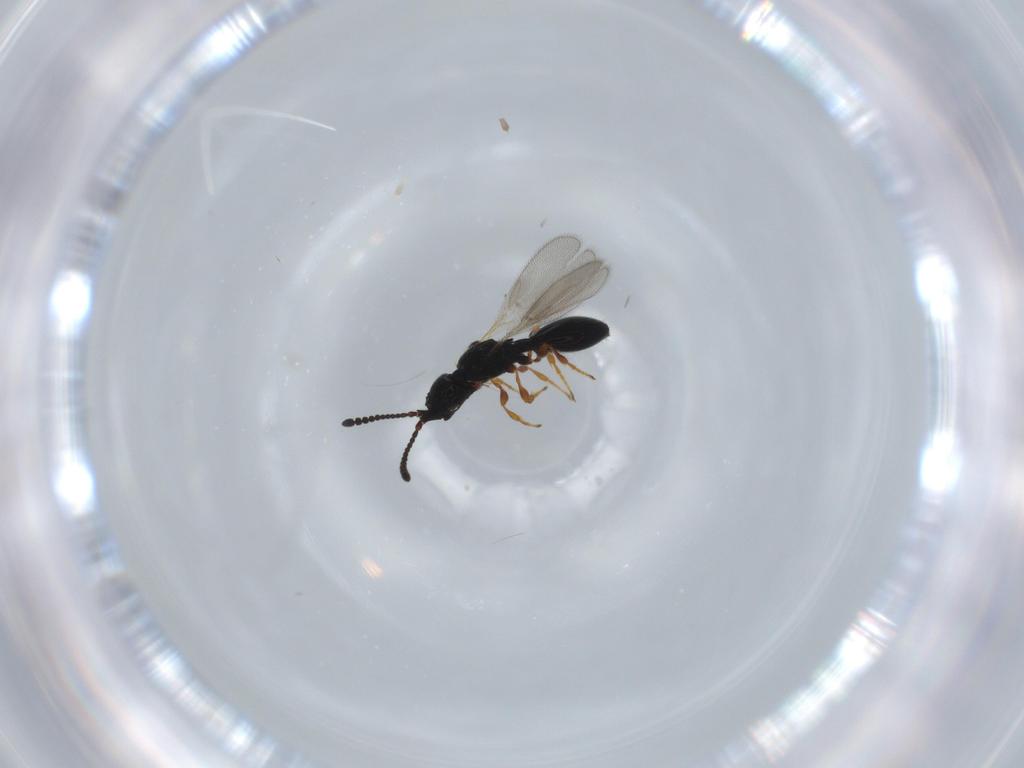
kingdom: Animalia
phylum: Arthropoda
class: Insecta
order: Hymenoptera
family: Diapriidae
